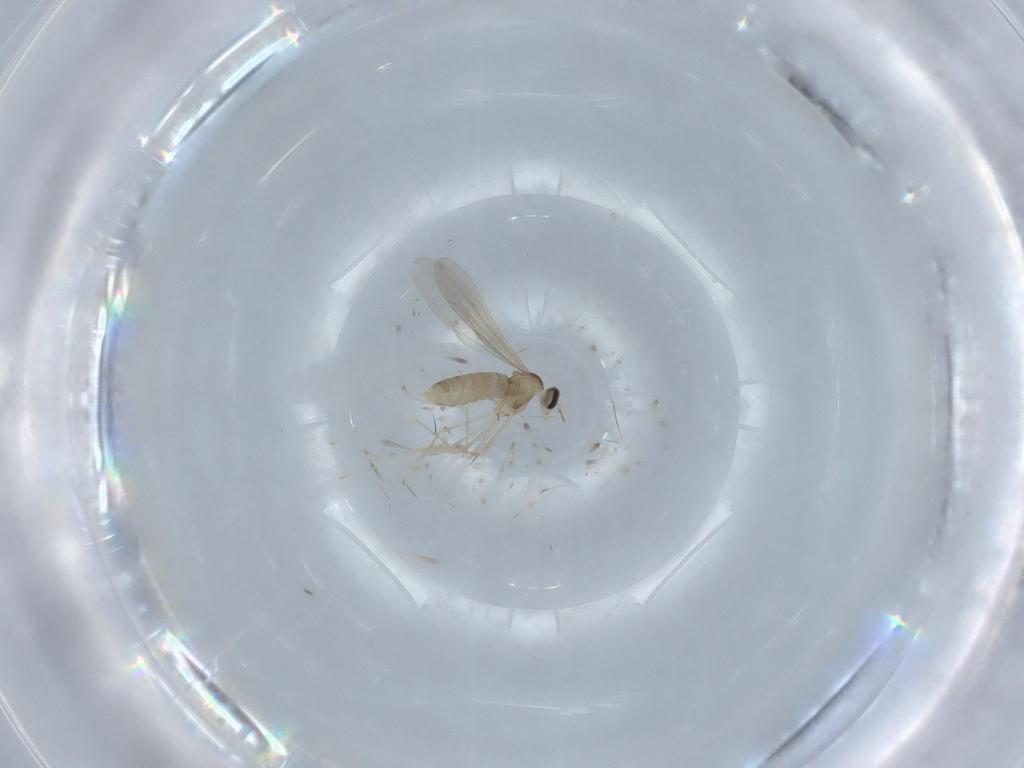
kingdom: Animalia
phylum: Arthropoda
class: Insecta
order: Diptera
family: Cecidomyiidae
